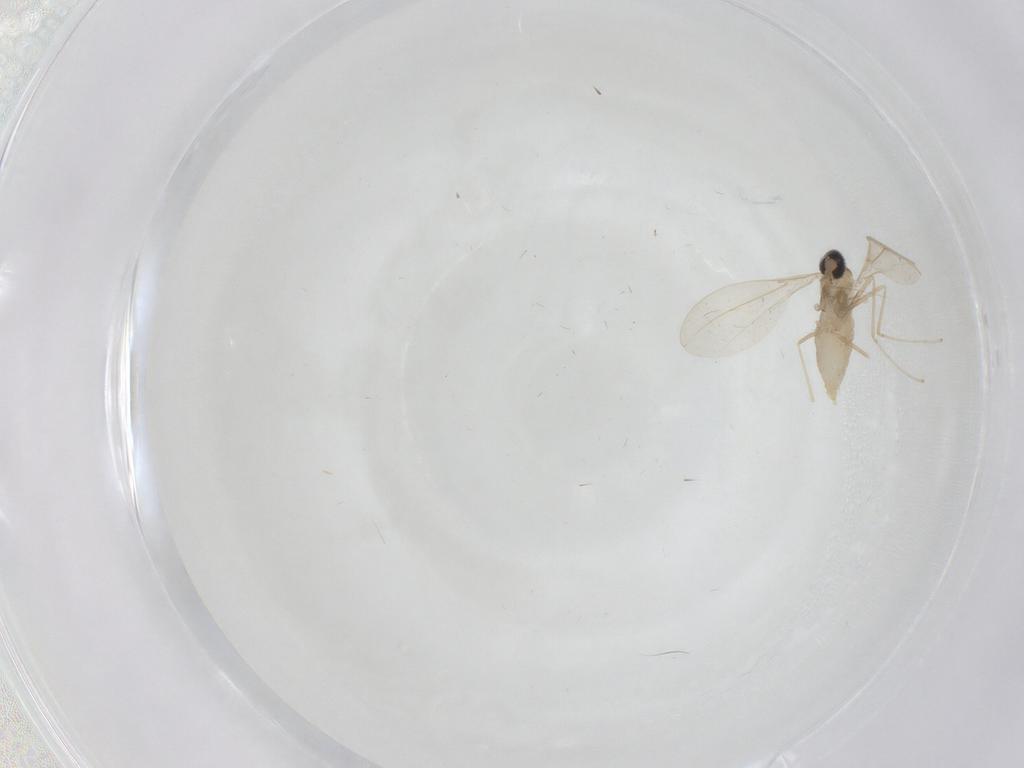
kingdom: Animalia
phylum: Arthropoda
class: Insecta
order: Diptera
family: Cecidomyiidae
